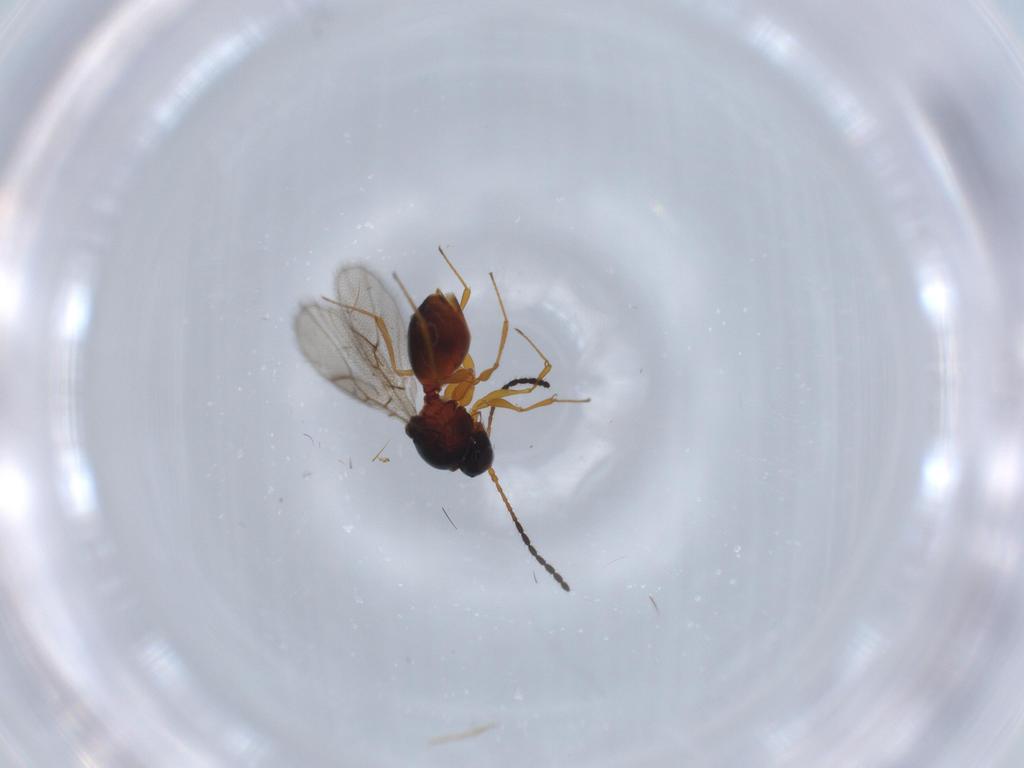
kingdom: Animalia
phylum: Arthropoda
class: Insecta
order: Hymenoptera
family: Figitidae
